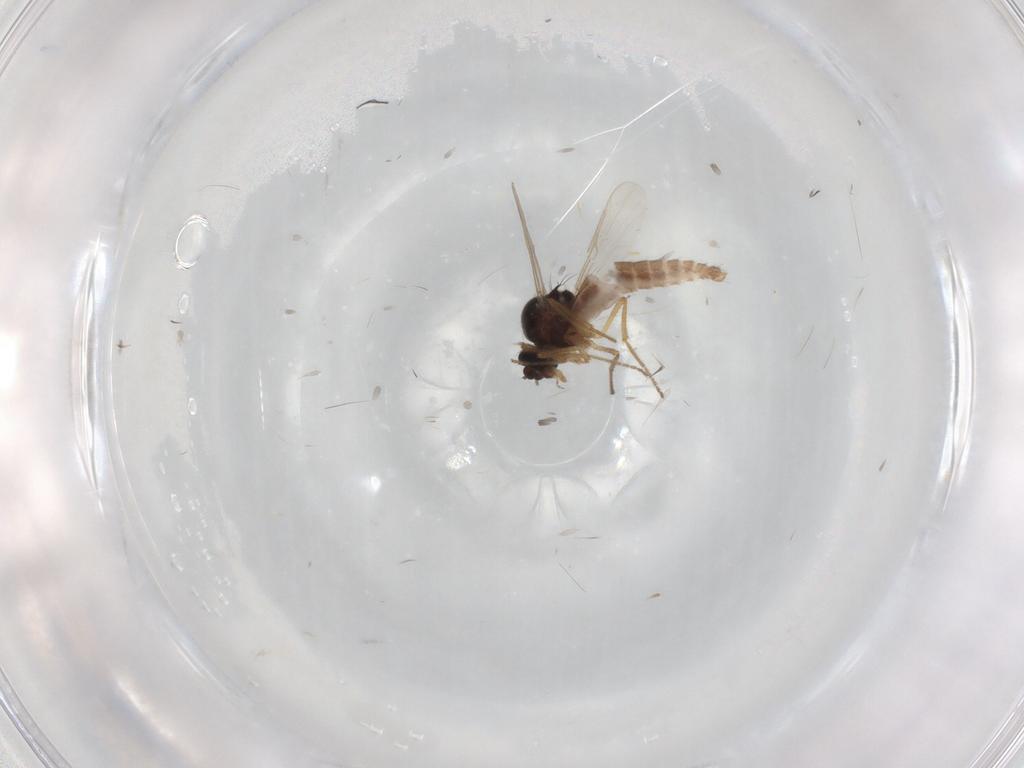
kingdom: Animalia
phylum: Arthropoda
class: Insecta
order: Diptera
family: Ceratopogonidae
